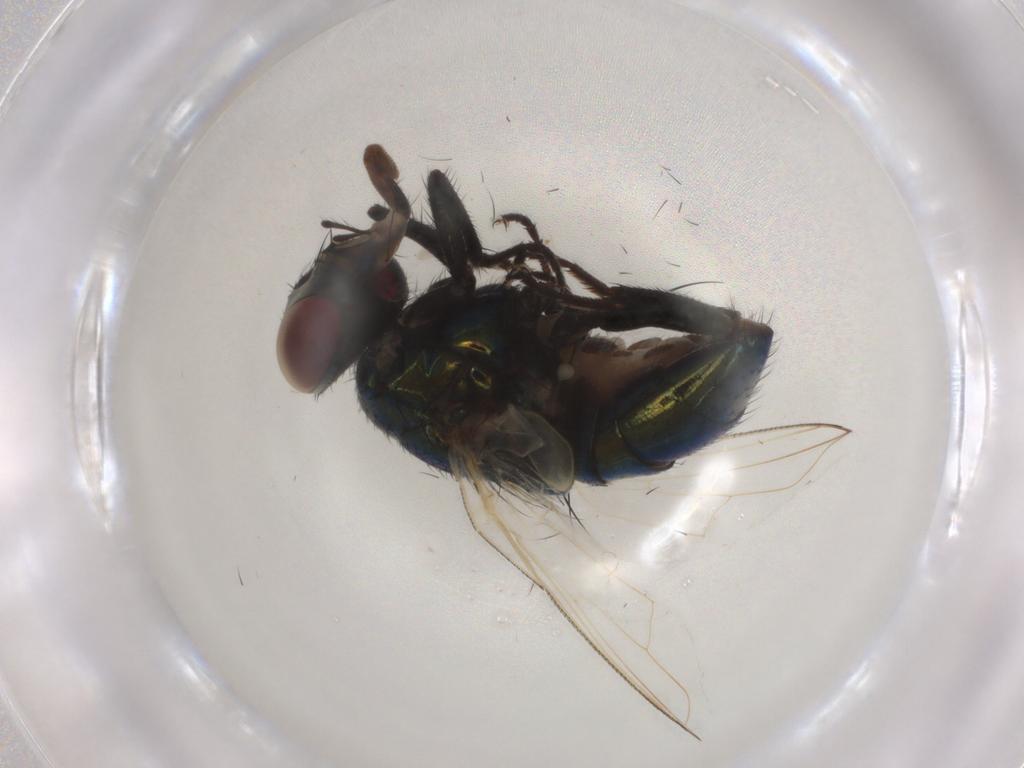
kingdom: Animalia
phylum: Arthropoda
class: Insecta
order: Diptera
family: Muscidae
